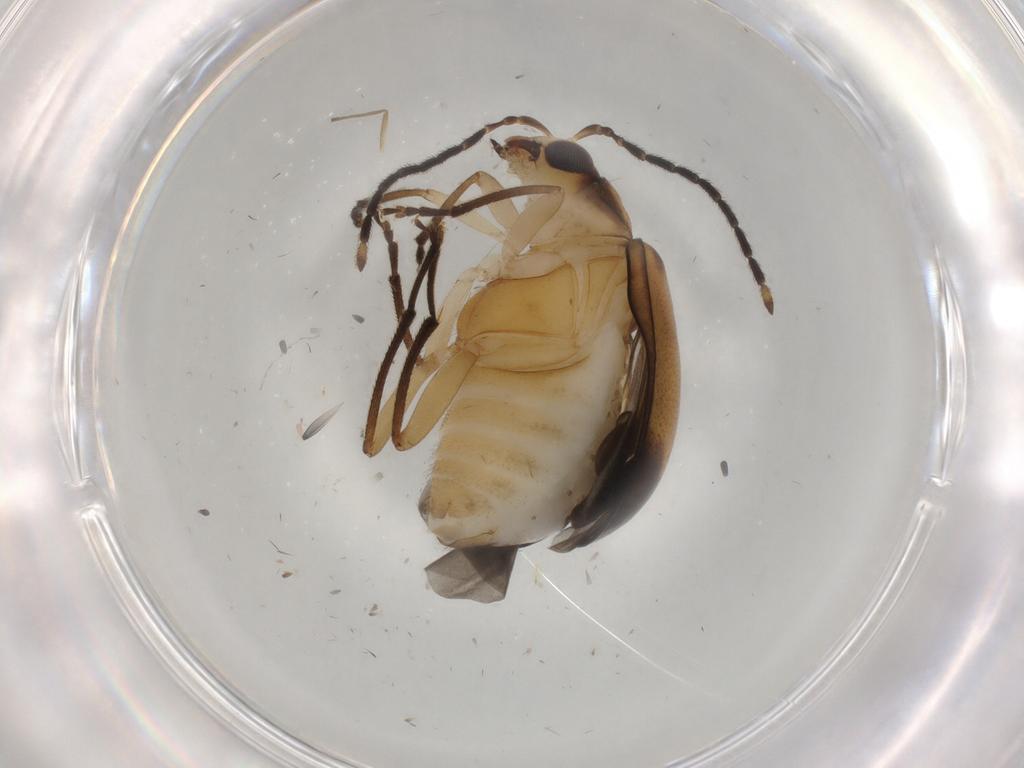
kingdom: Animalia
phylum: Arthropoda
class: Insecta
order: Coleoptera
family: Chrysomelidae
